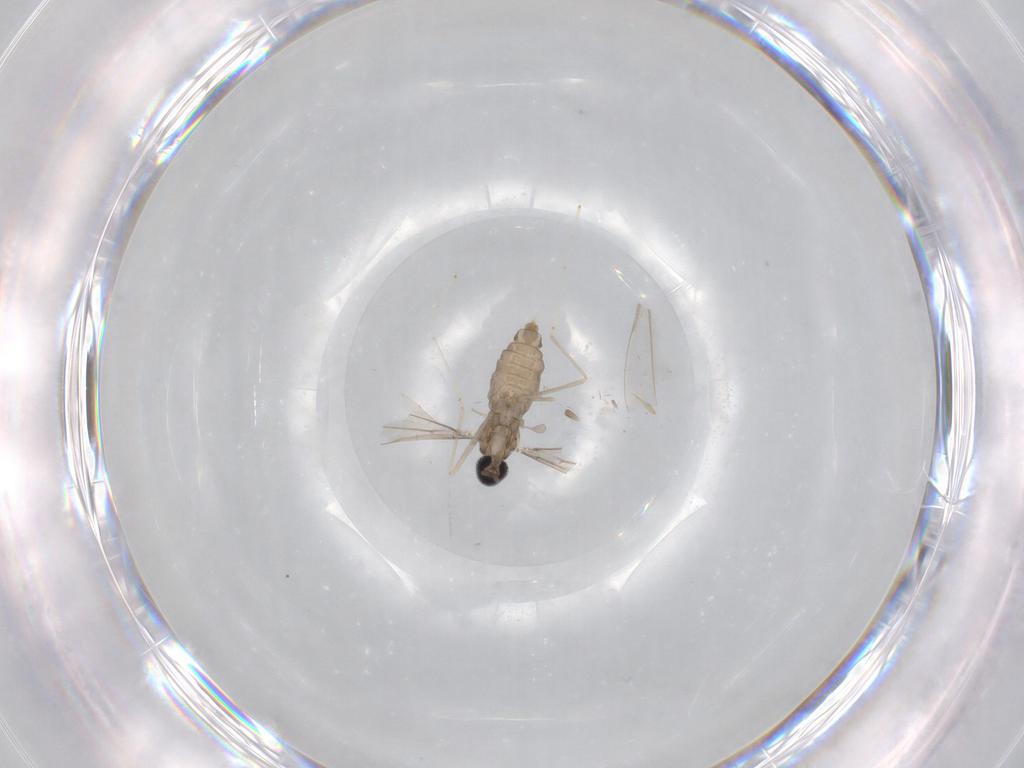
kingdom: Animalia
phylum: Arthropoda
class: Insecta
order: Diptera
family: Cecidomyiidae
